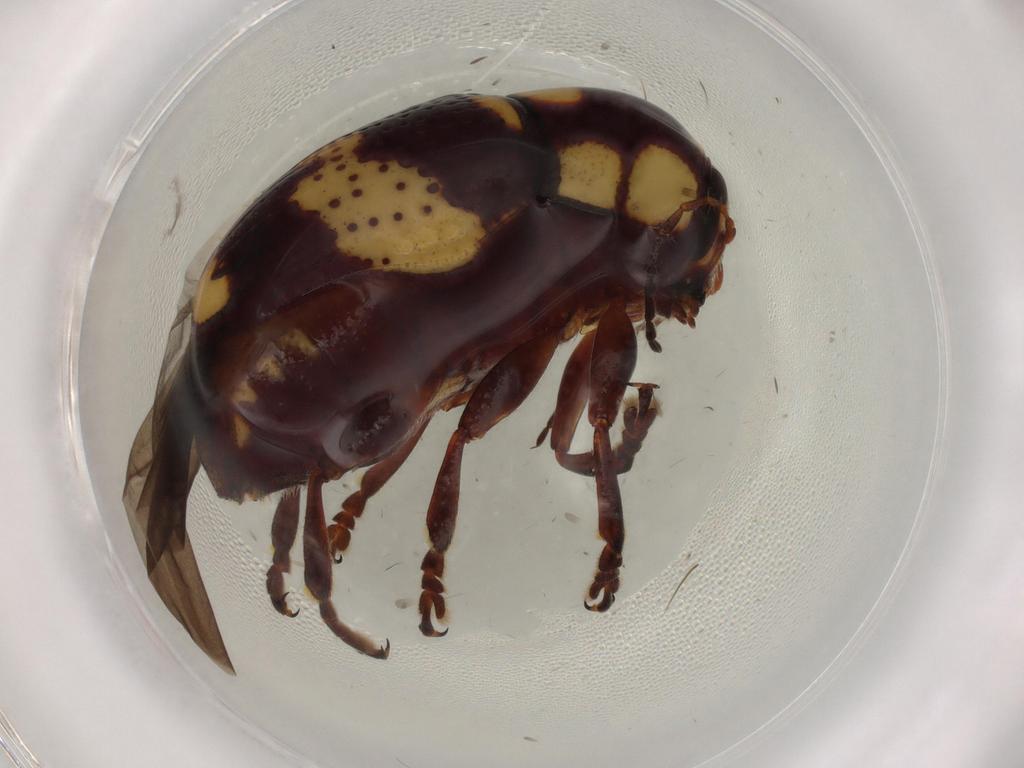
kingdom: Animalia
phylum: Arthropoda
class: Insecta
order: Coleoptera
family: Chrysomelidae
